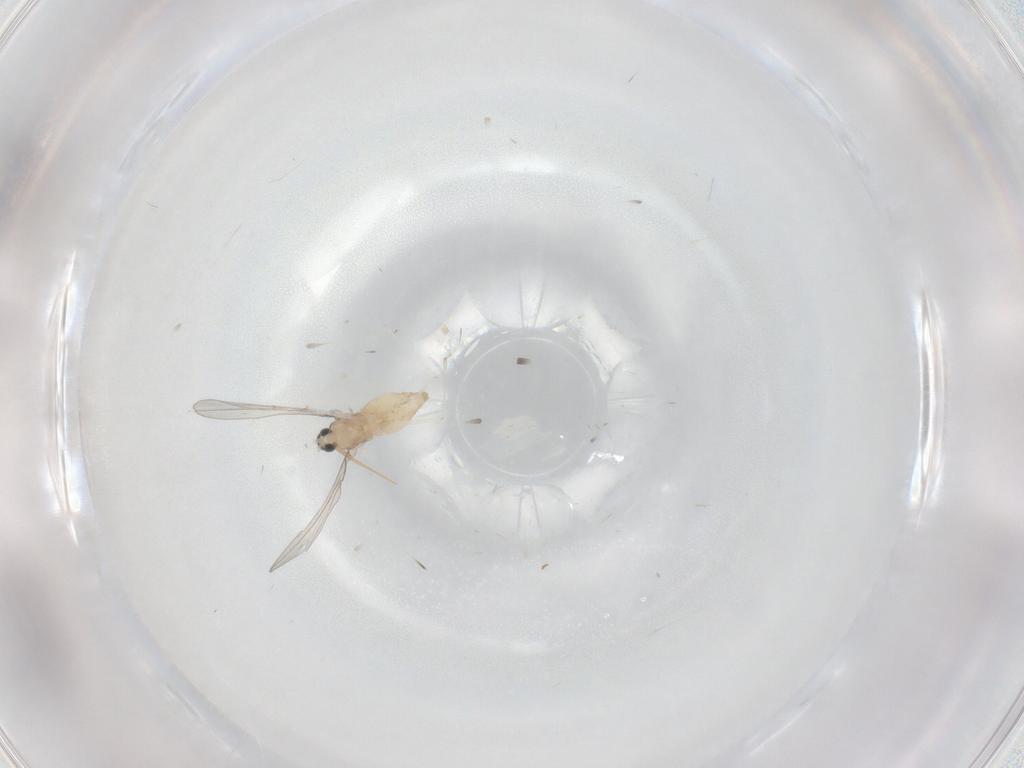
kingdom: Animalia
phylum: Arthropoda
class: Insecta
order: Diptera
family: Cecidomyiidae
